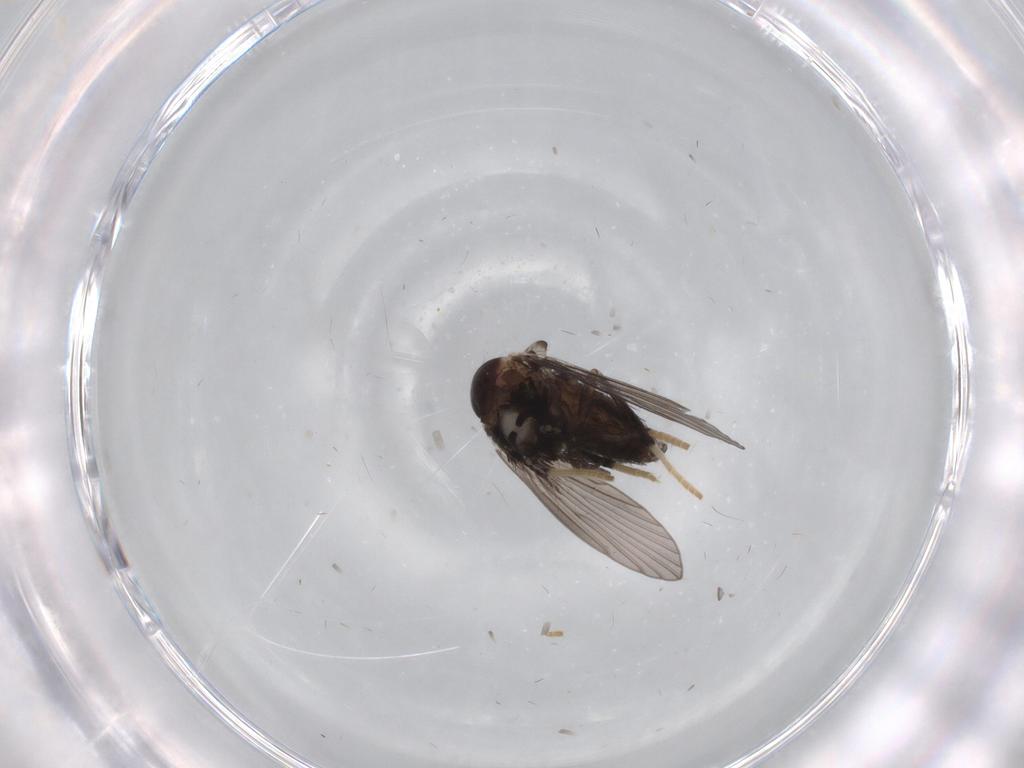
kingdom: Animalia
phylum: Arthropoda
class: Insecta
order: Diptera
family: Psychodidae
